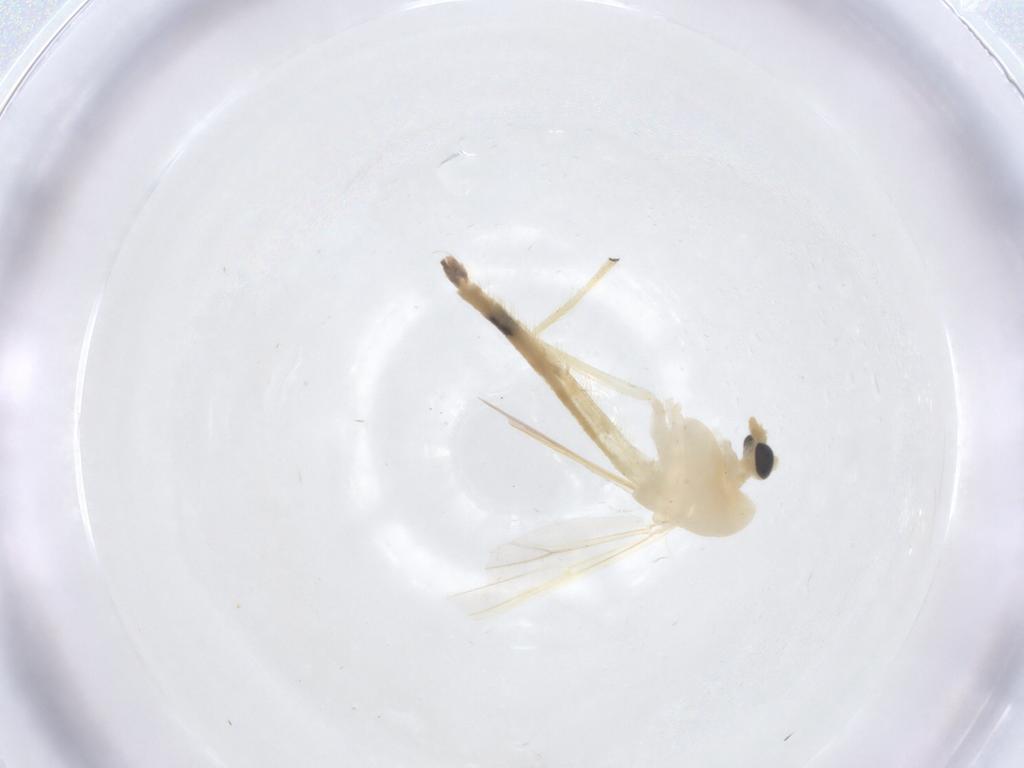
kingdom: Animalia
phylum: Arthropoda
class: Insecta
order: Diptera
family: Chironomidae
